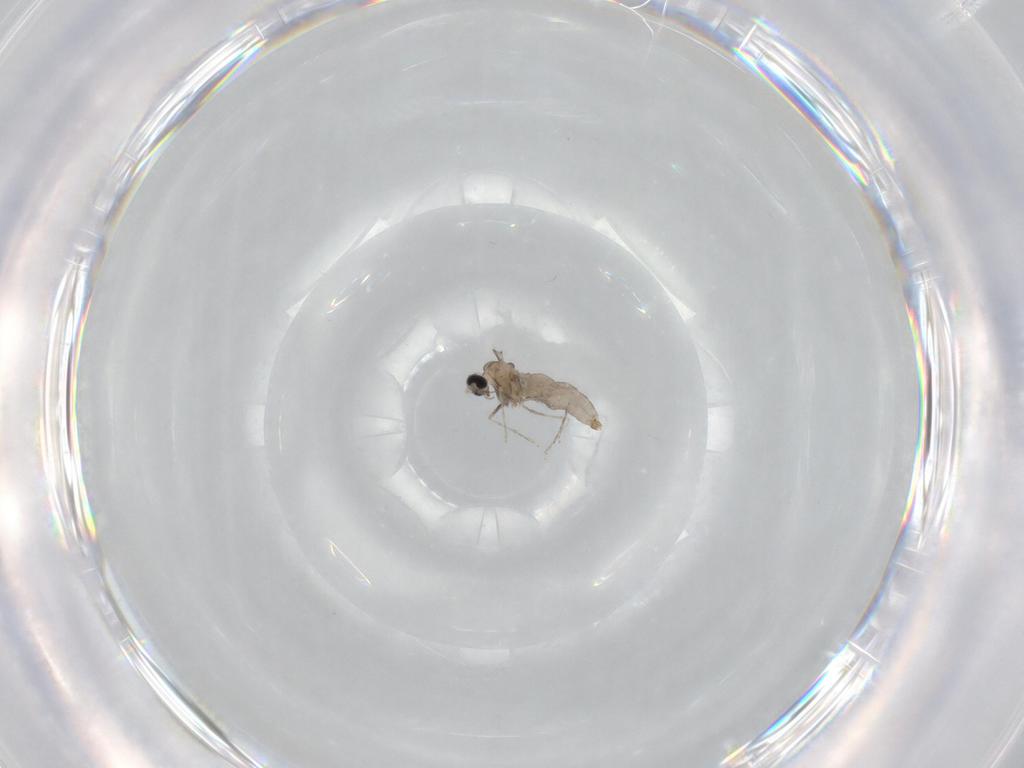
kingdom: Animalia
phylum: Arthropoda
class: Insecta
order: Diptera
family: Cecidomyiidae
